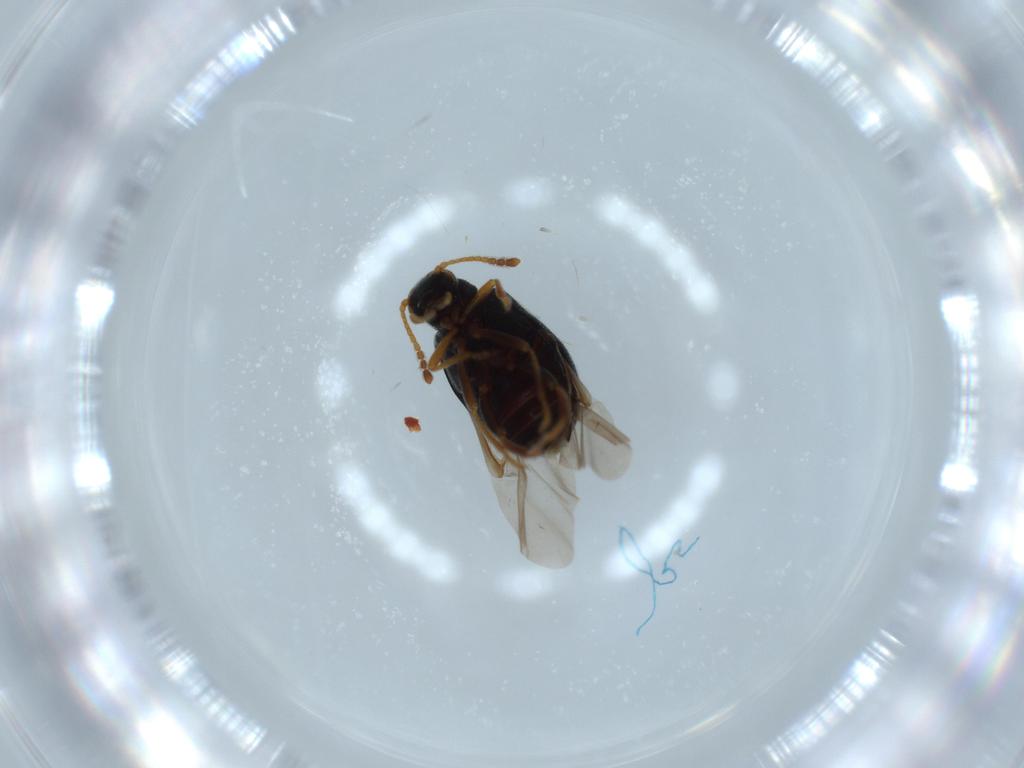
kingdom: Animalia
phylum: Arthropoda
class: Insecta
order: Coleoptera
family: Aderidae
